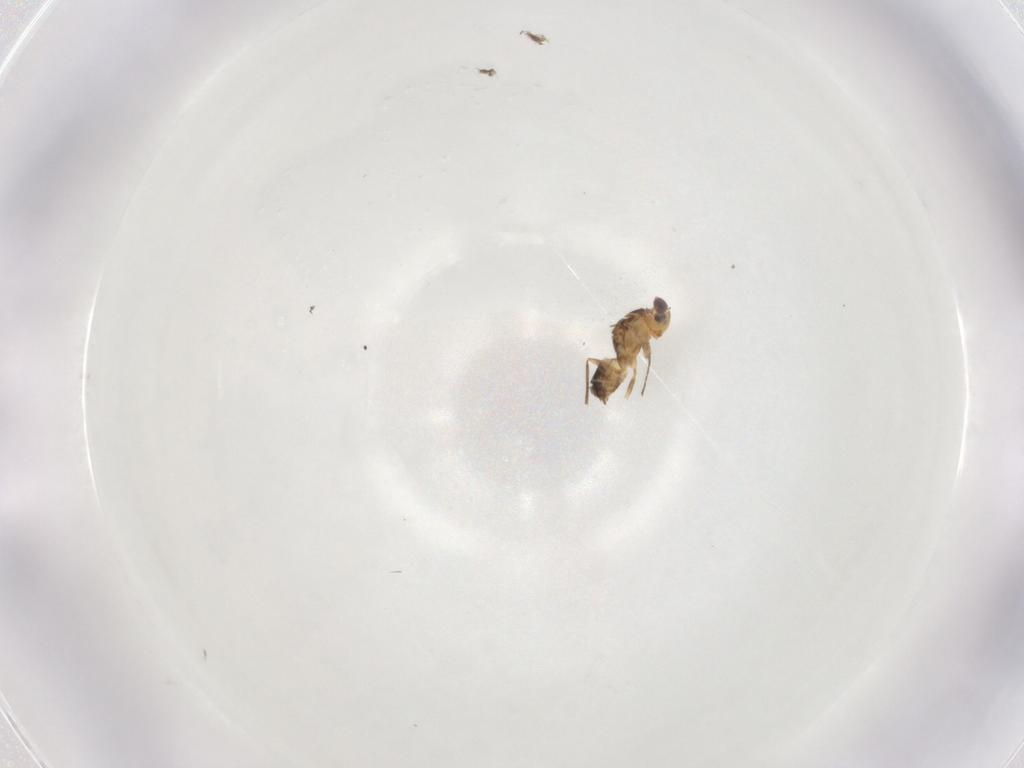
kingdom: Animalia
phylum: Arthropoda
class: Insecta
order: Hymenoptera
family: Mymaridae
